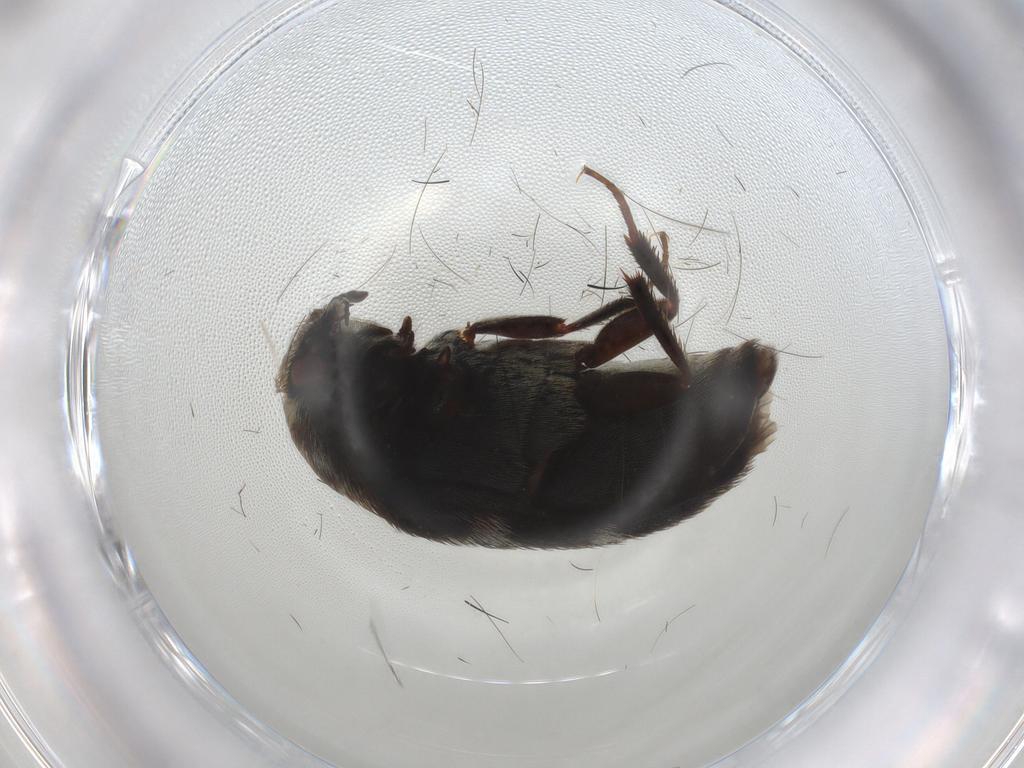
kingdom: Animalia
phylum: Arthropoda
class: Insecta
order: Coleoptera
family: Dermestidae
